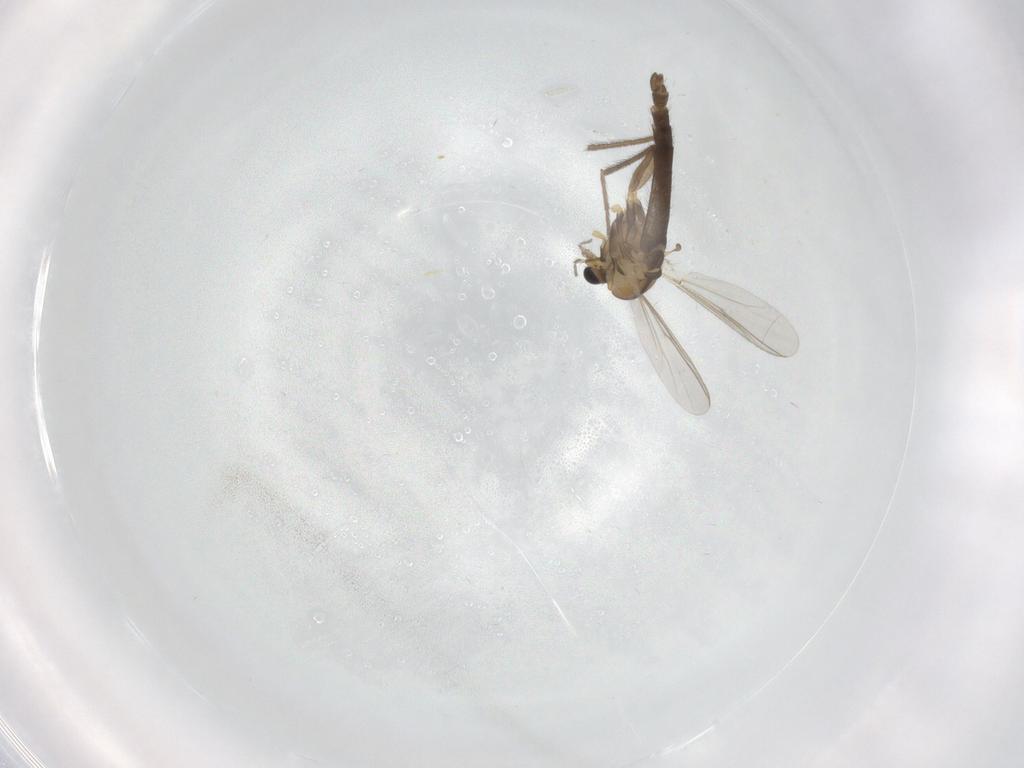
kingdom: Animalia
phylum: Arthropoda
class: Insecta
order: Diptera
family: Chironomidae
